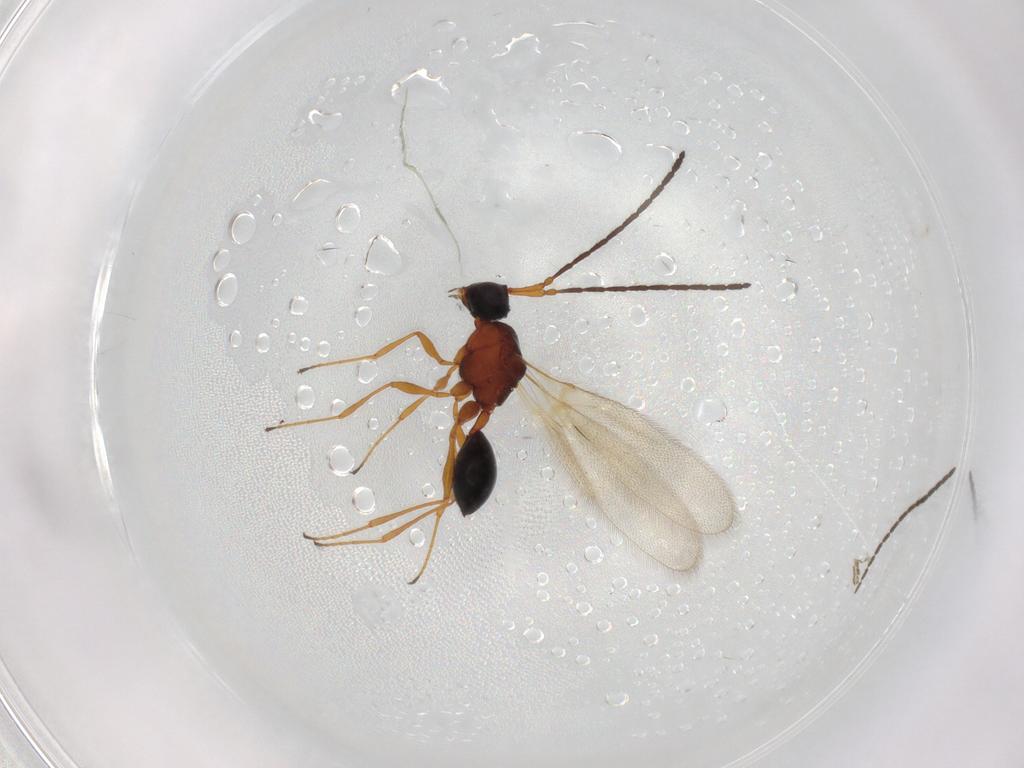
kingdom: Animalia
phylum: Arthropoda
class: Insecta
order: Hymenoptera
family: Diapriidae
